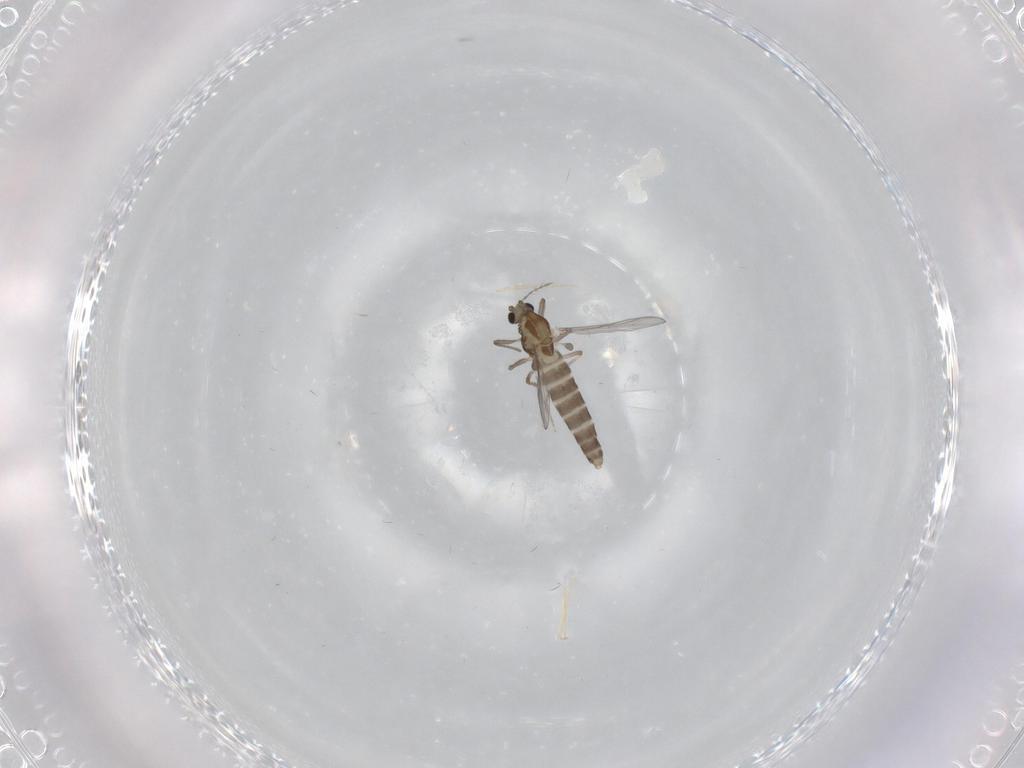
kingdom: Animalia
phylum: Arthropoda
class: Insecta
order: Diptera
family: Chironomidae
